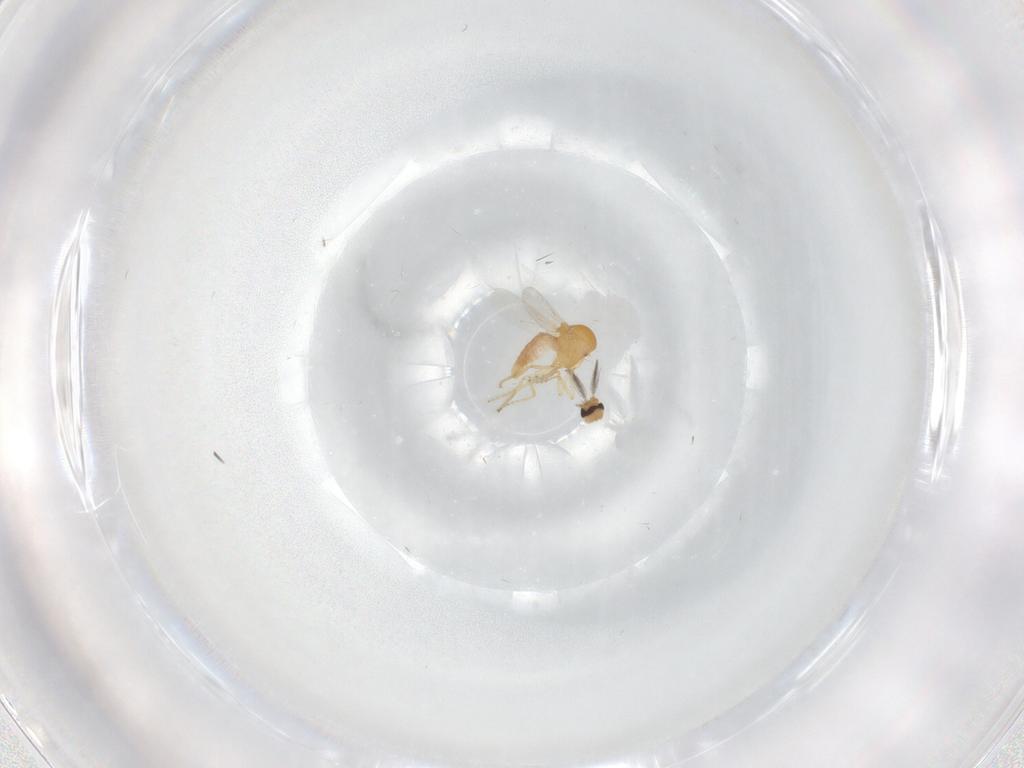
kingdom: Animalia
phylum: Arthropoda
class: Insecta
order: Diptera
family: Ceratopogonidae
